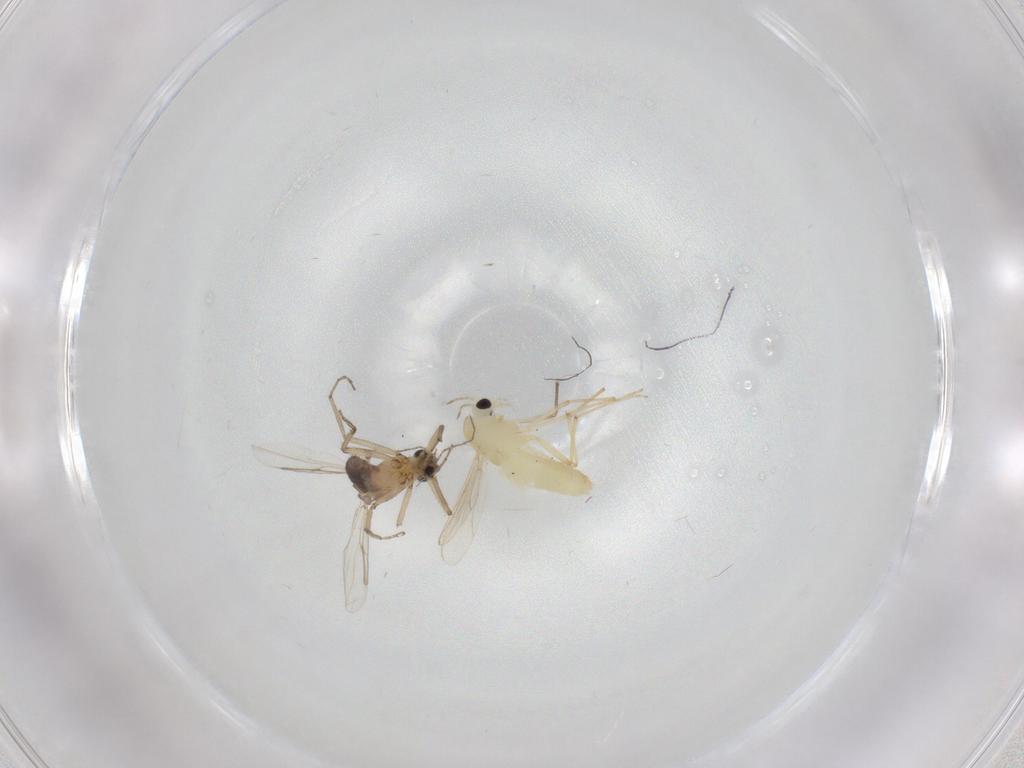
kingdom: Animalia
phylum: Arthropoda
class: Insecta
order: Diptera
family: Ceratopogonidae
